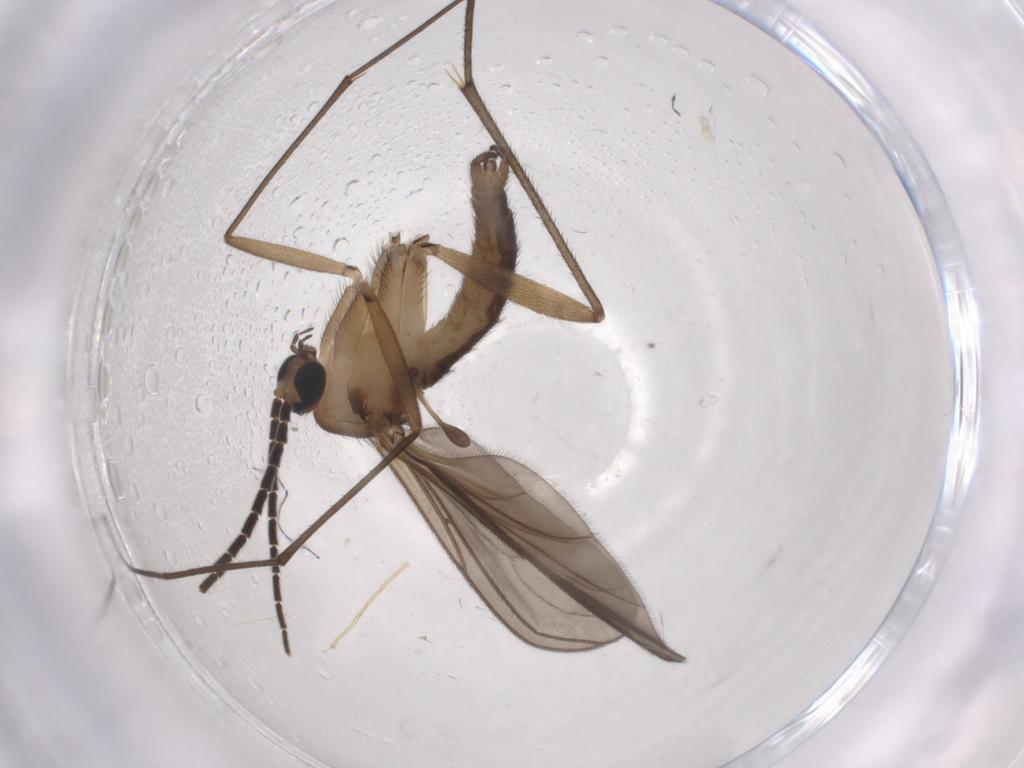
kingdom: Animalia
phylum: Arthropoda
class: Insecta
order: Diptera
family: Sciaridae
